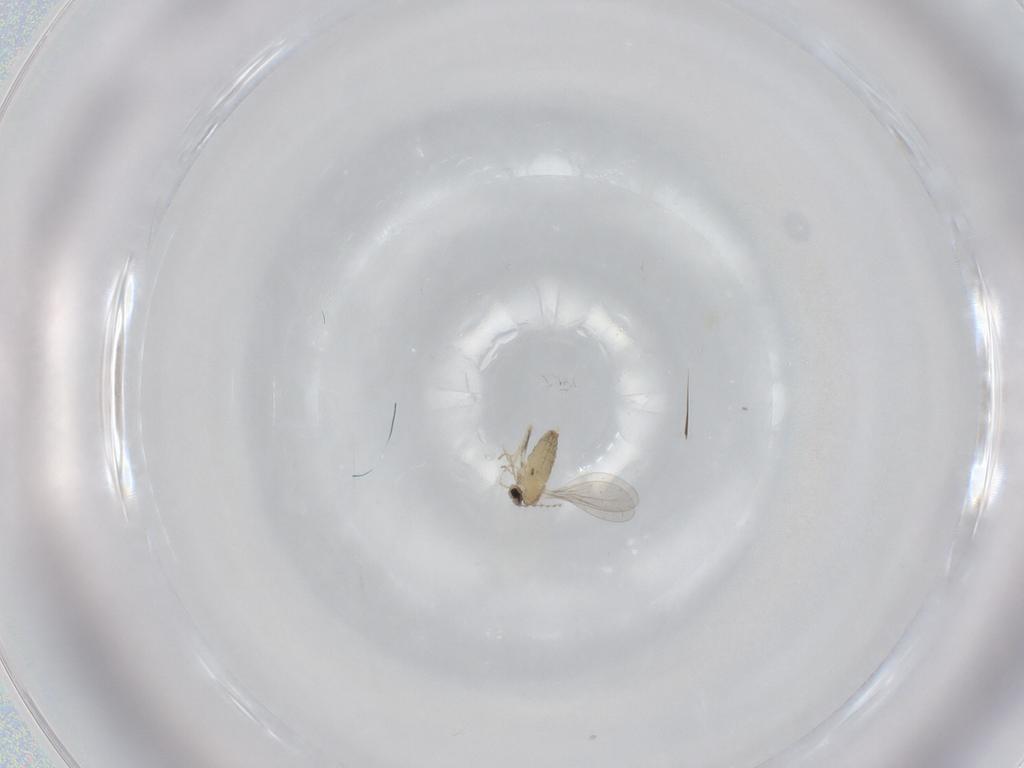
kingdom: Animalia
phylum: Arthropoda
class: Insecta
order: Diptera
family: Cecidomyiidae
